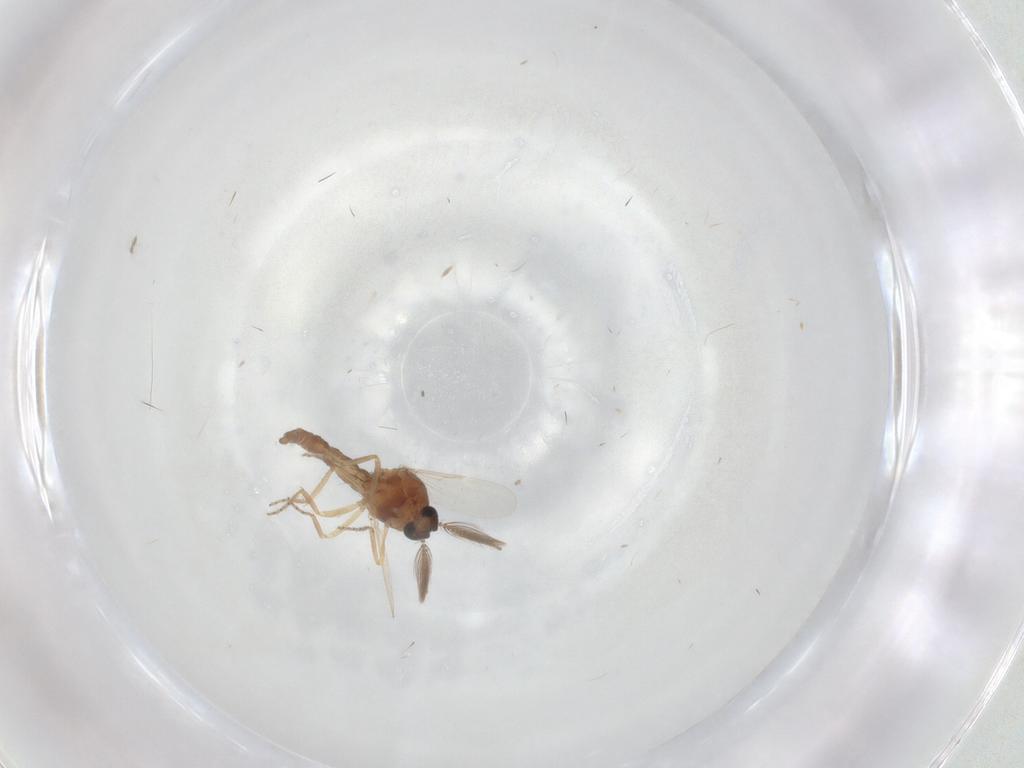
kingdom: Animalia
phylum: Arthropoda
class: Insecta
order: Diptera
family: Ceratopogonidae
